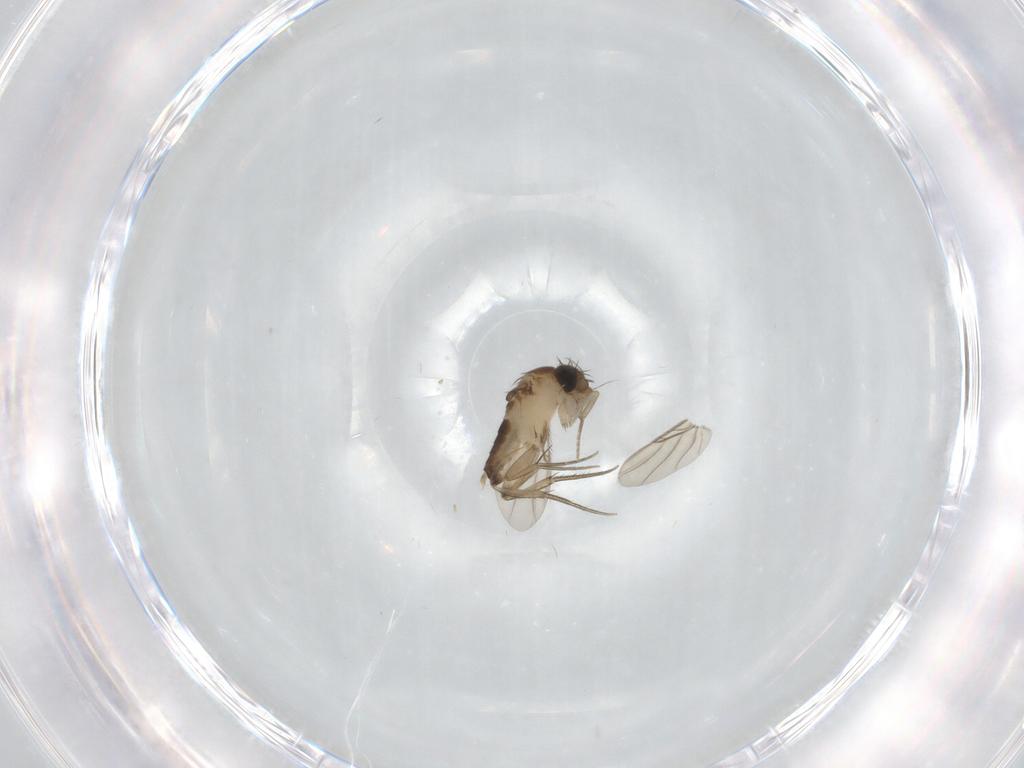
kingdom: Animalia
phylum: Arthropoda
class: Insecta
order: Diptera
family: Phoridae
